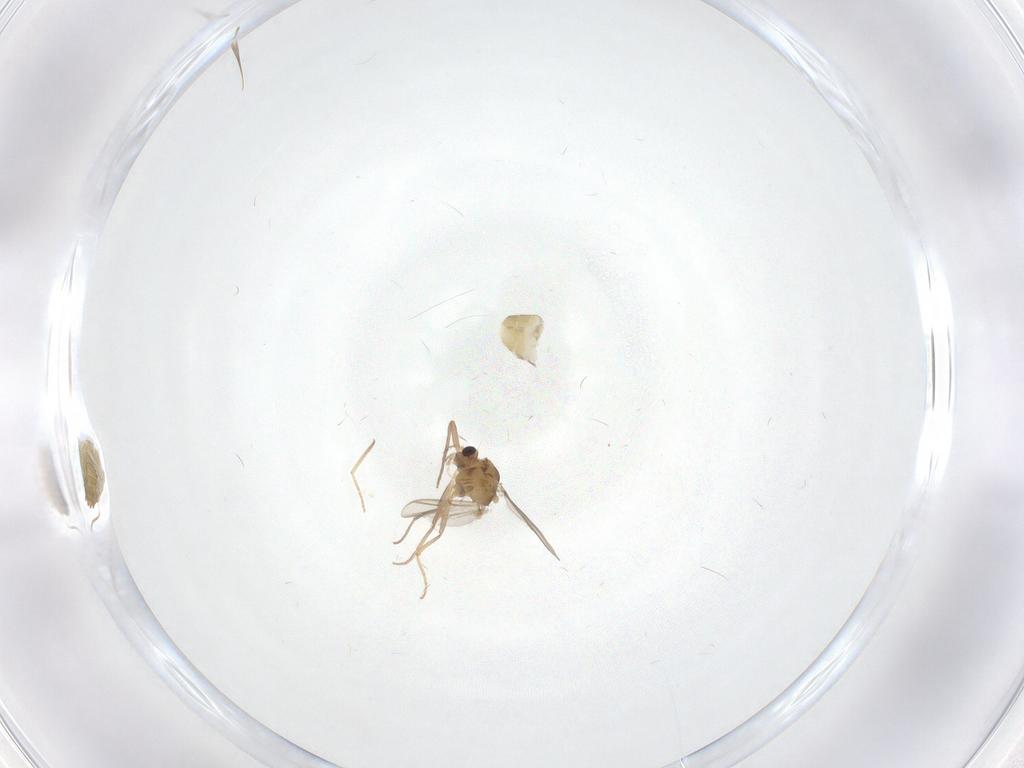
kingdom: Animalia
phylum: Arthropoda
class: Insecta
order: Diptera
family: Chironomidae
